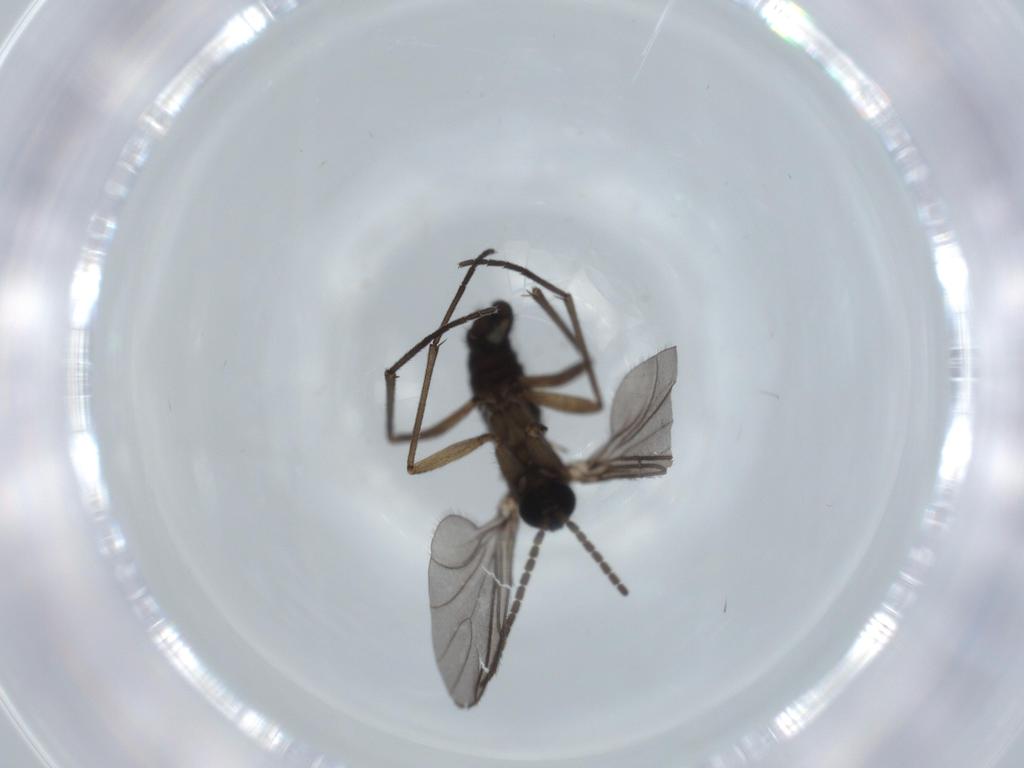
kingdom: Animalia
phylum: Arthropoda
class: Insecta
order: Diptera
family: Sciaridae
